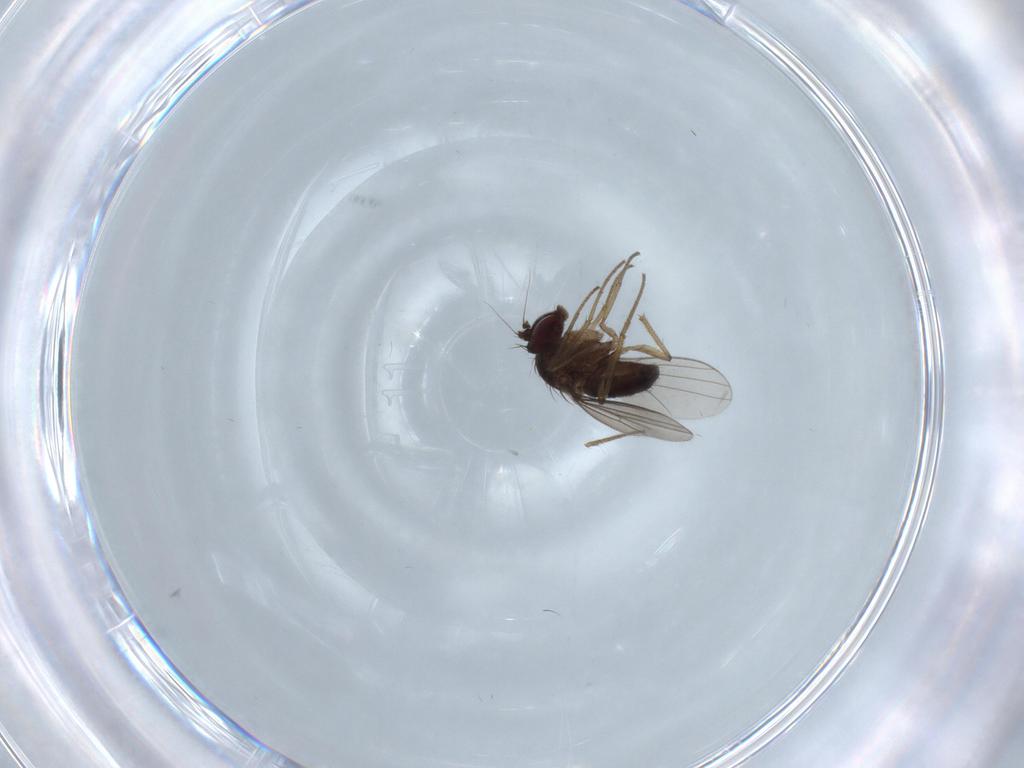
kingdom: Animalia
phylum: Arthropoda
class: Insecta
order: Diptera
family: Dolichopodidae
